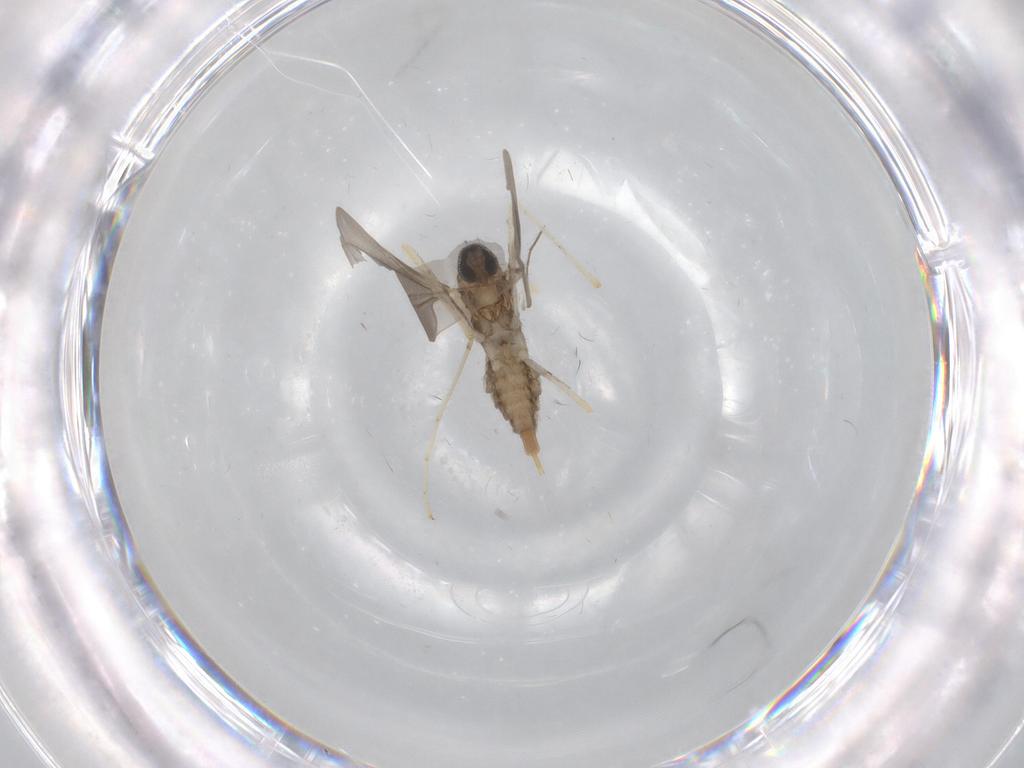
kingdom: Animalia
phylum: Arthropoda
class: Insecta
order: Diptera
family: Cecidomyiidae
